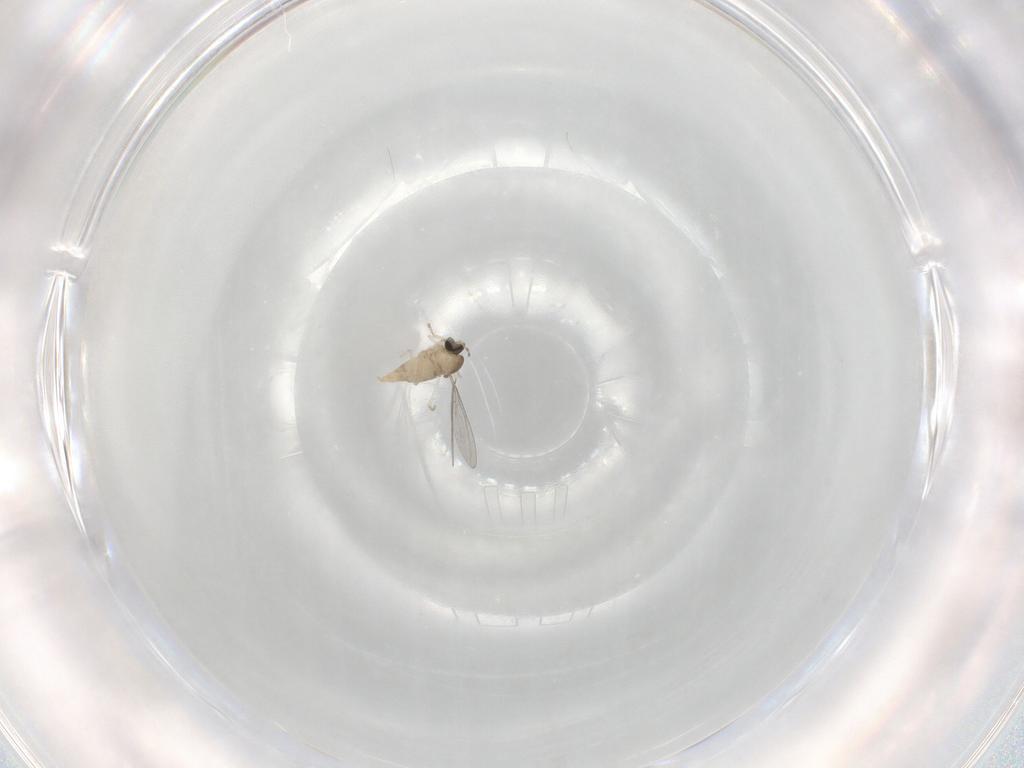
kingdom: Animalia
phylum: Arthropoda
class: Insecta
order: Diptera
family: Cecidomyiidae
